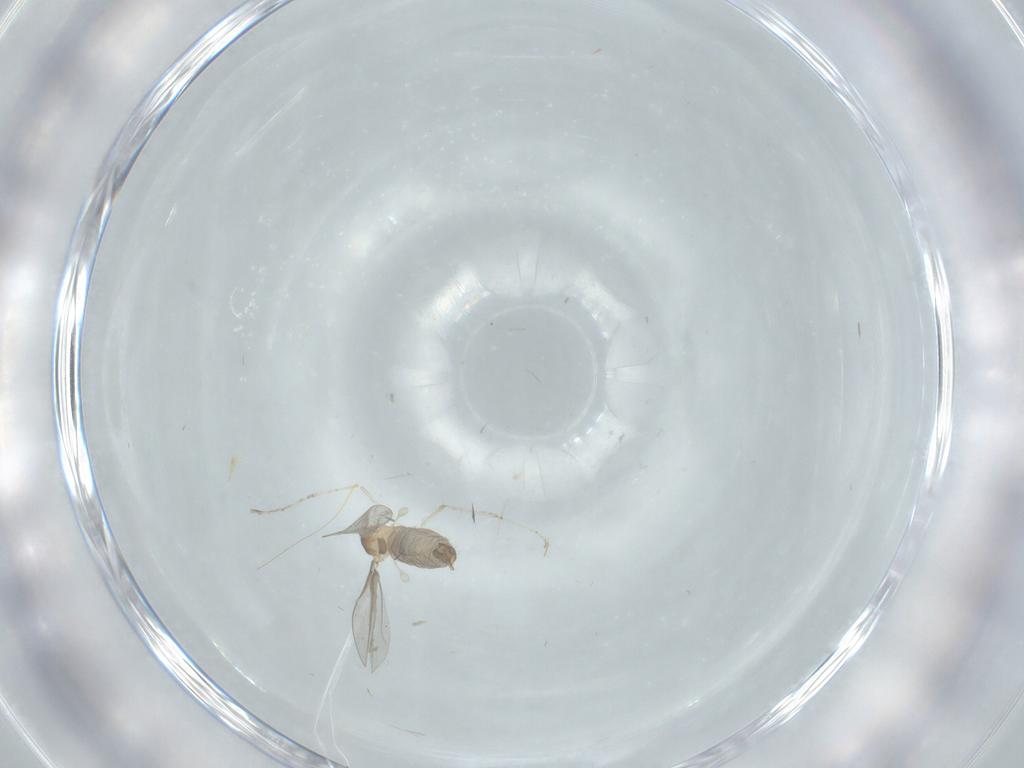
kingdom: Animalia
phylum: Arthropoda
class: Insecta
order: Diptera
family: Cecidomyiidae
